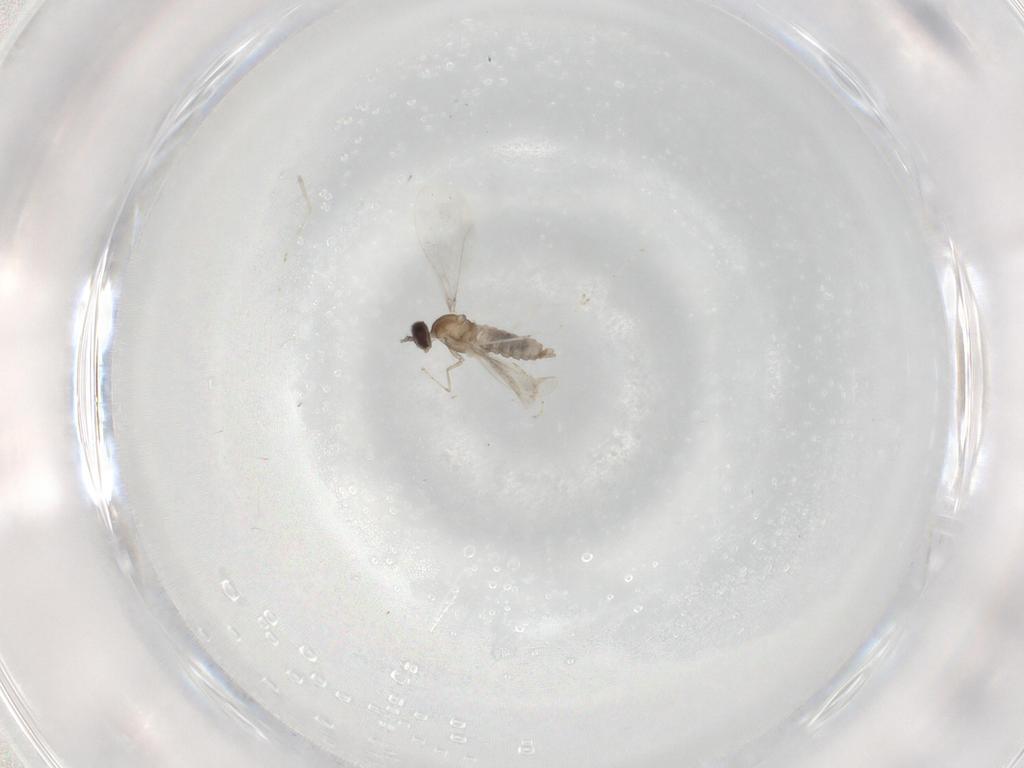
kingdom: Animalia
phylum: Arthropoda
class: Insecta
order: Diptera
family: Cecidomyiidae
